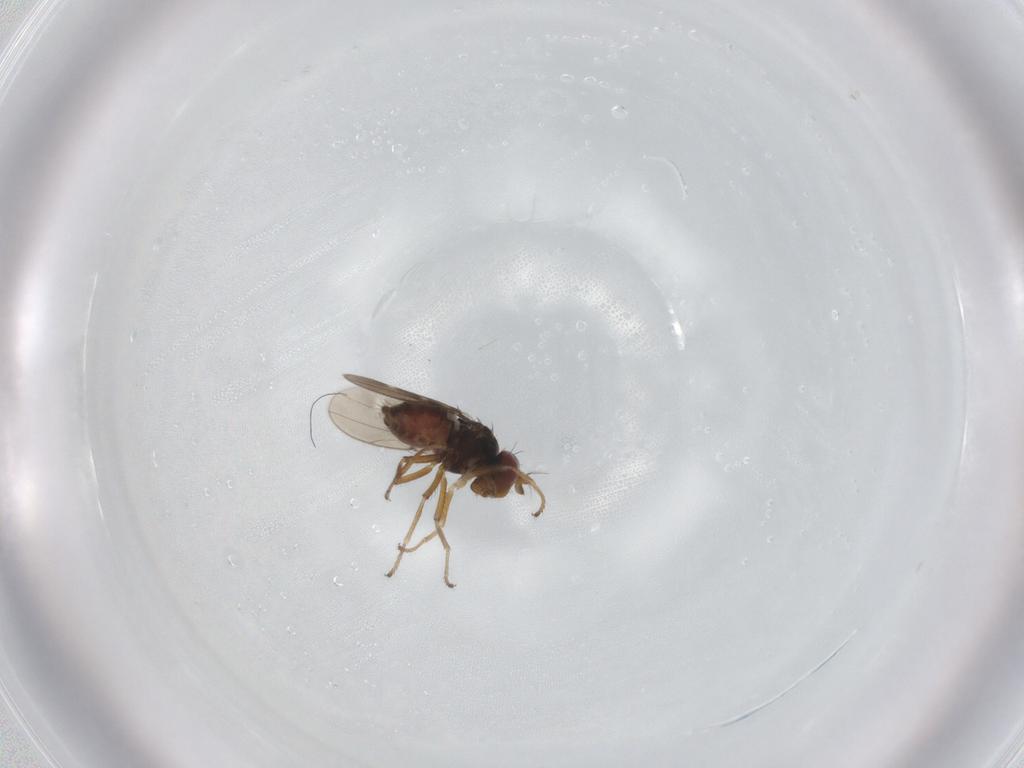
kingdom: Animalia
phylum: Arthropoda
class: Insecta
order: Diptera
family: Ephydridae
